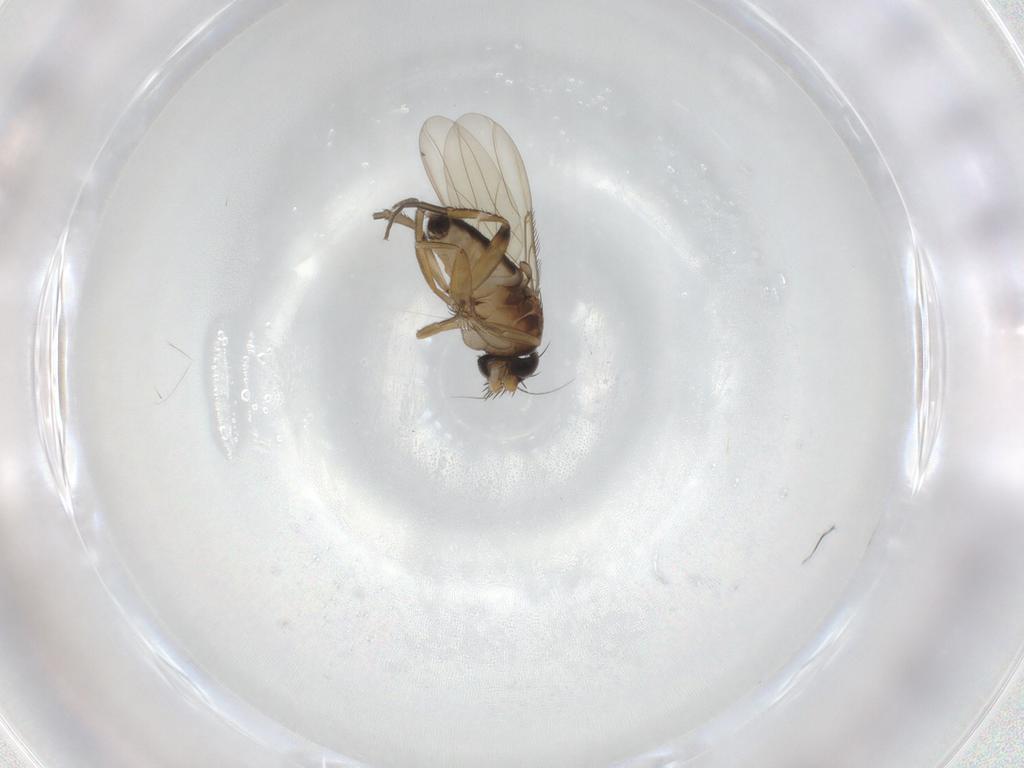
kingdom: Animalia
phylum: Arthropoda
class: Insecta
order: Diptera
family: Phoridae
